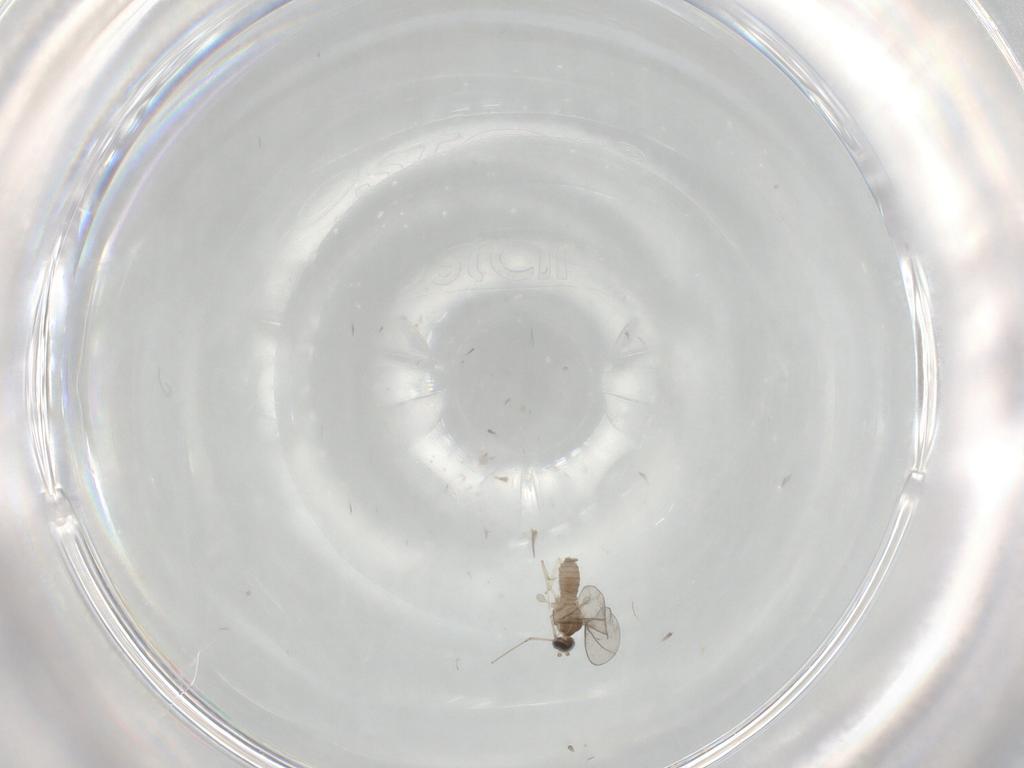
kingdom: Animalia
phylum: Arthropoda
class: Insecta
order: Diptera
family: Cecidomyiidae
